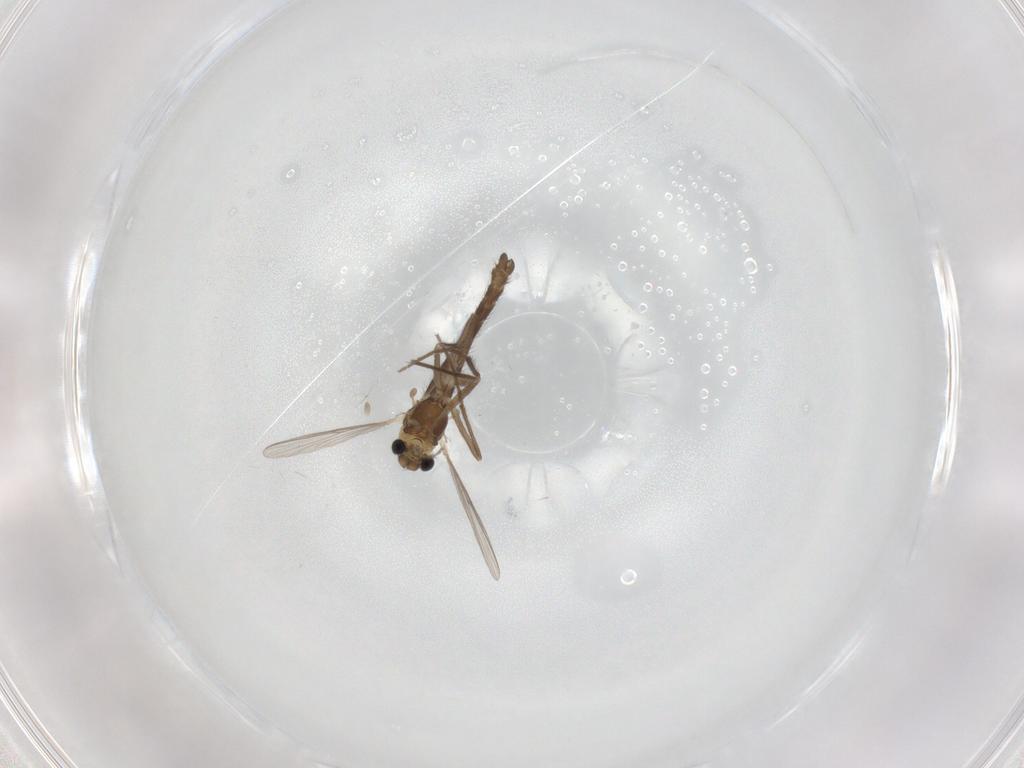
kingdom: Animalia
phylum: Arthropoda
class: Insecta
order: Diptera
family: Chironomidae
